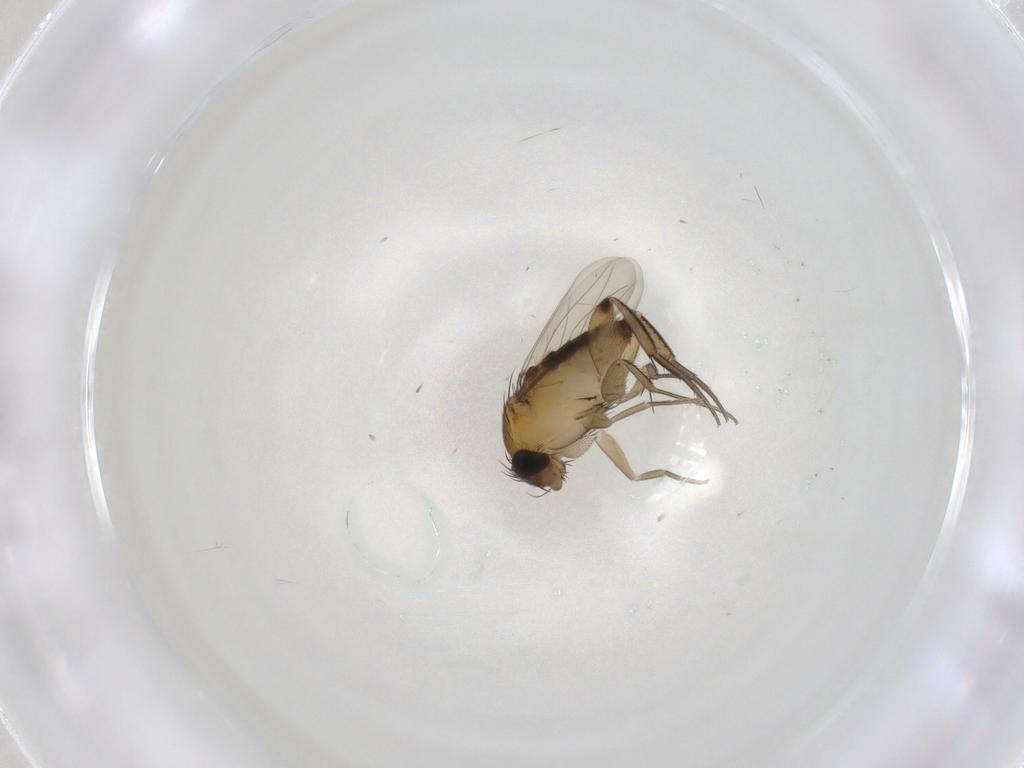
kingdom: Animalia
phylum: Arthropoda
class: Insecta
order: Diptera
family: Phoridae
